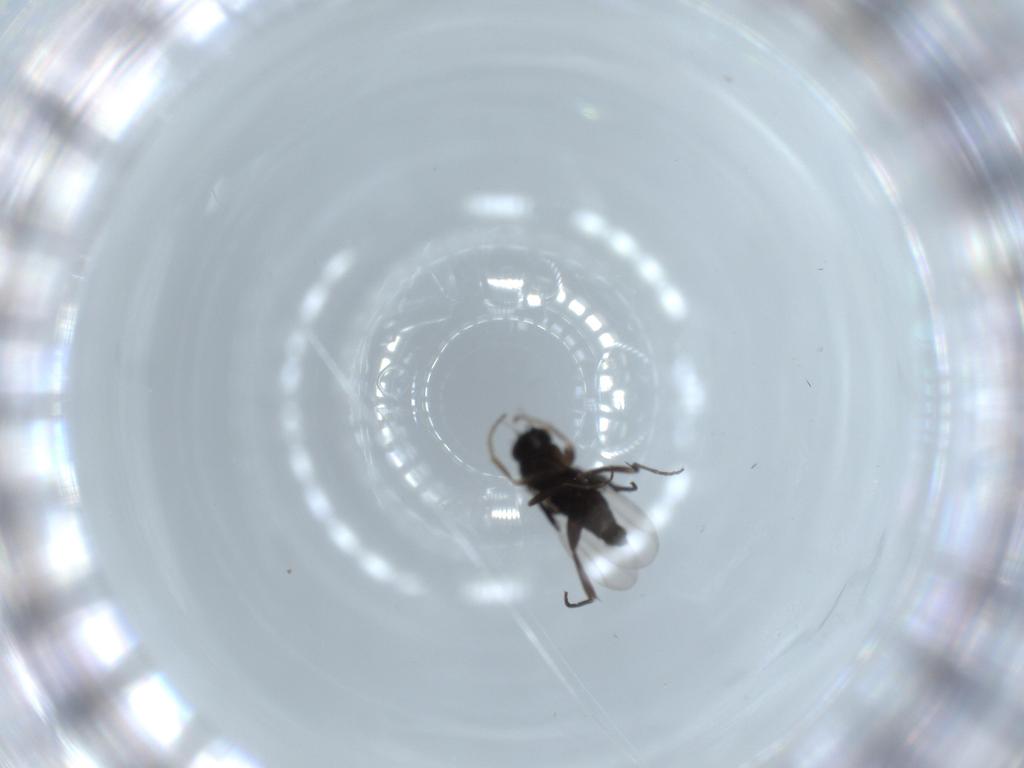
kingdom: Animalia
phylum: Arthropoda
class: Insecta
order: Diptera
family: Phoridae
